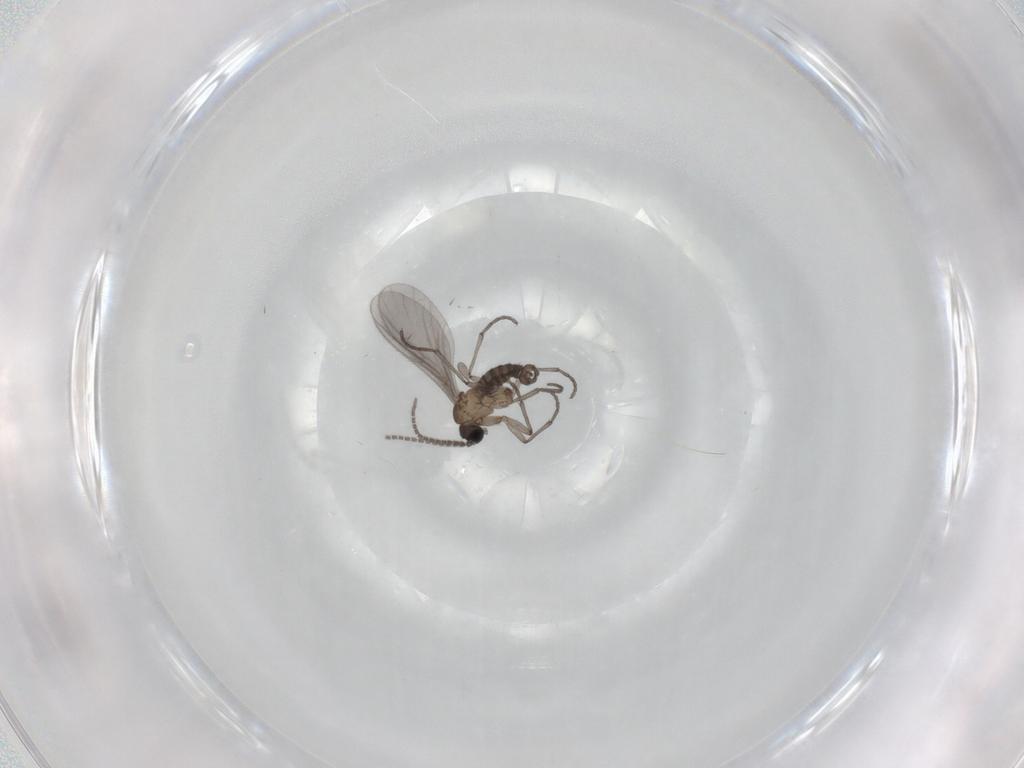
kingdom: Animalia
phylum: Arthropoda
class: Insecta
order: Diptera
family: Sciaridae
